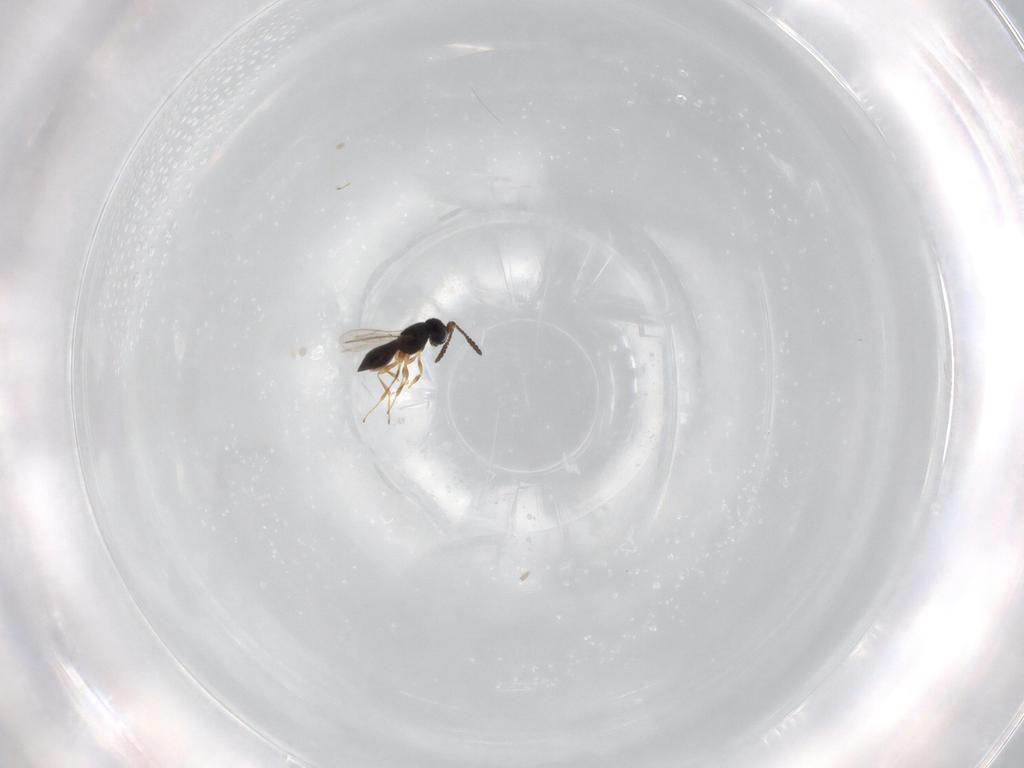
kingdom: Animalia
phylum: Arthropoda
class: Insecta
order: Hymenoptera
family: Scelionidae
